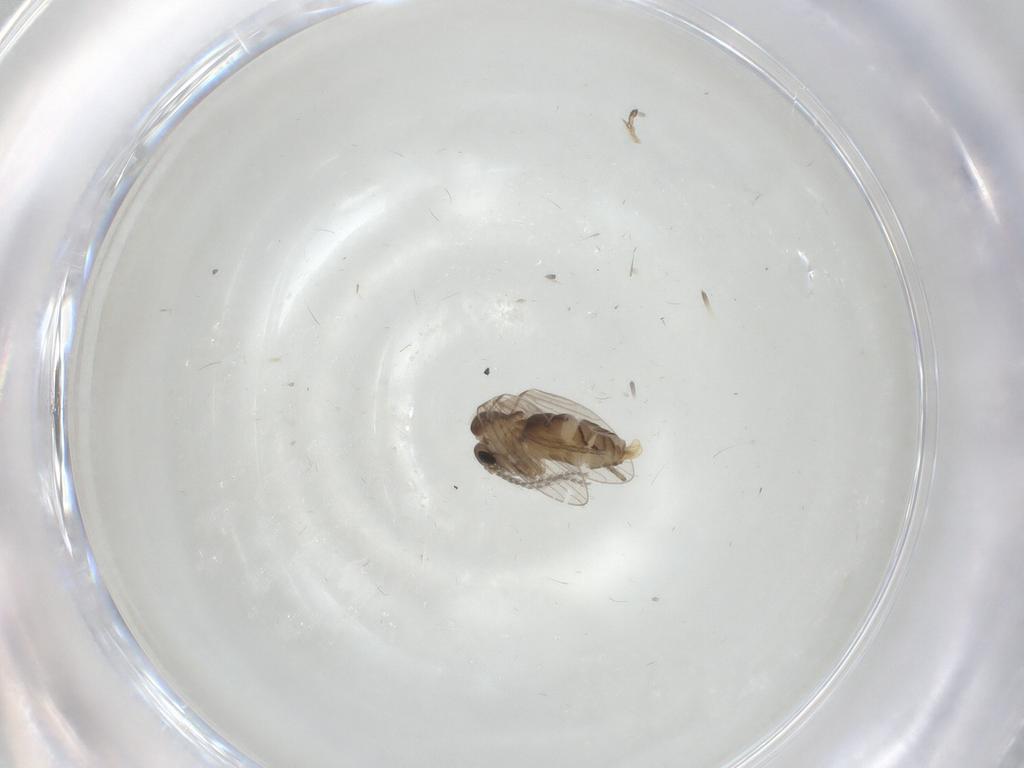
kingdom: Animalia
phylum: Arthropoda
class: Insecta
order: Diptera
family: Psychodidae
